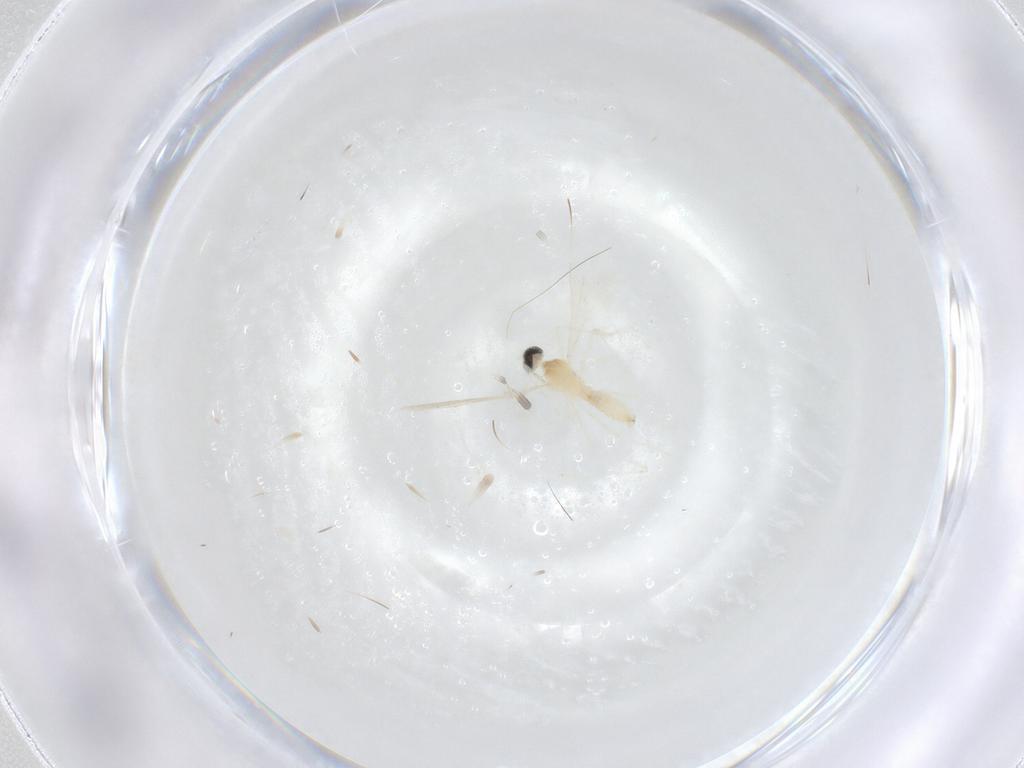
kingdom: Animalia
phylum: Arthropoda
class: Insecta
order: Diptera
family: Cecidomyiidae
